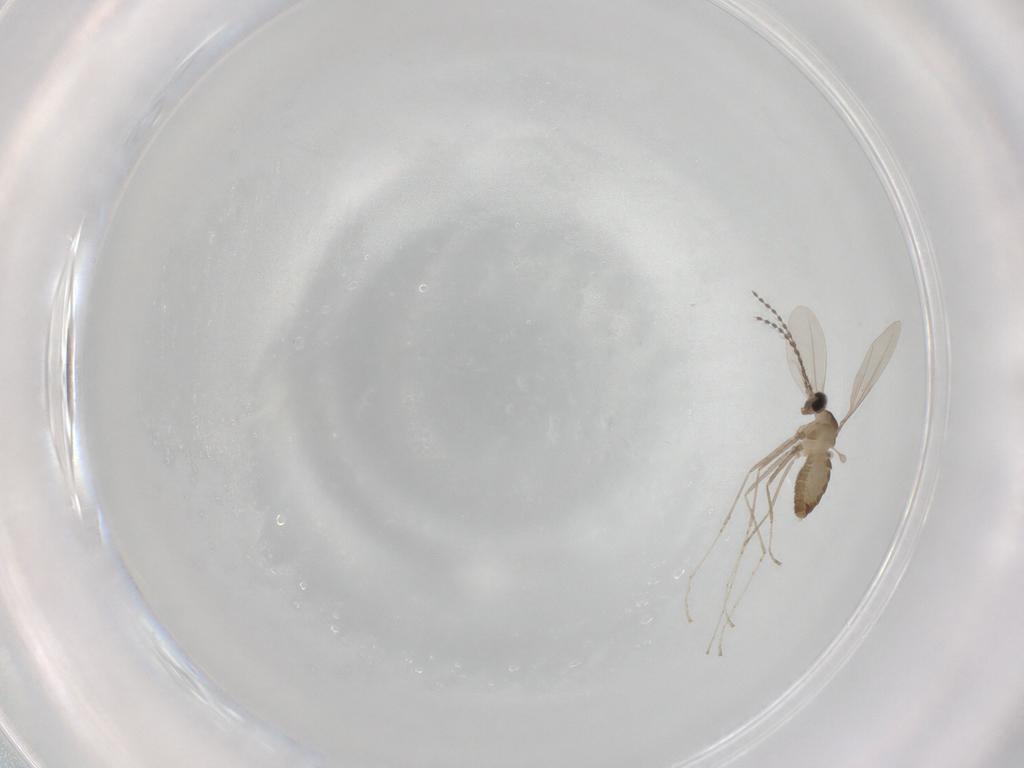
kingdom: Animalia
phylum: Arthropoda
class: Insecta
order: Diptera
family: Cecidomyiidae
